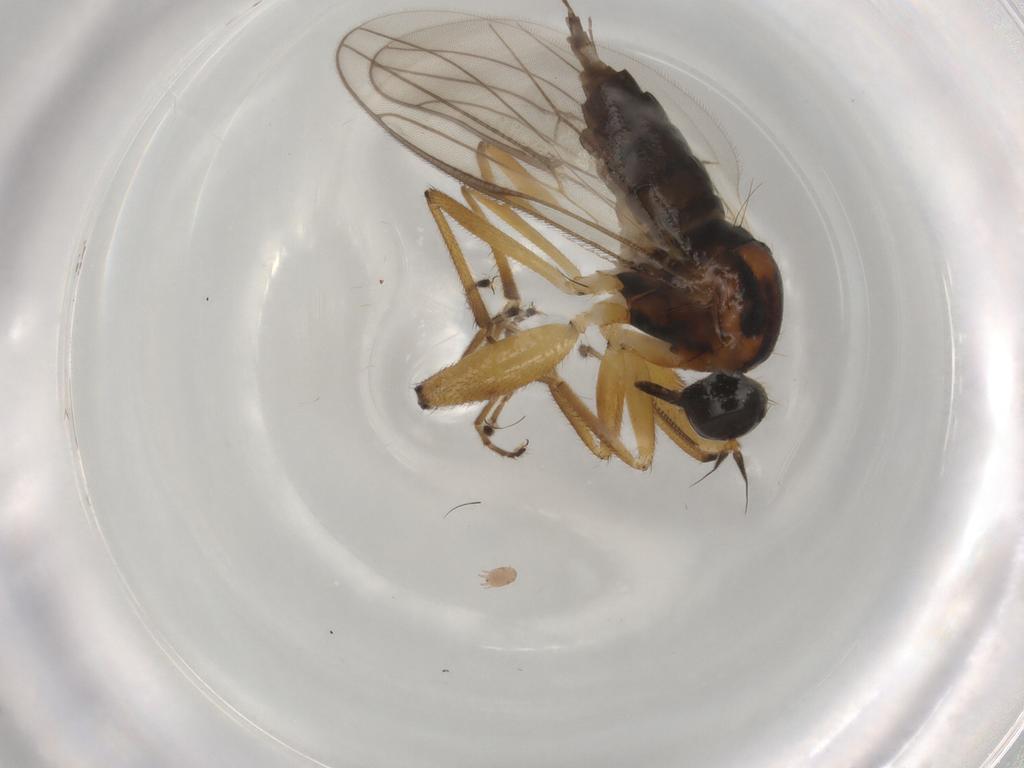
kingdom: Animalia
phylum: Arthropoda
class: Insecta
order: Diptera
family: Hybotidae
